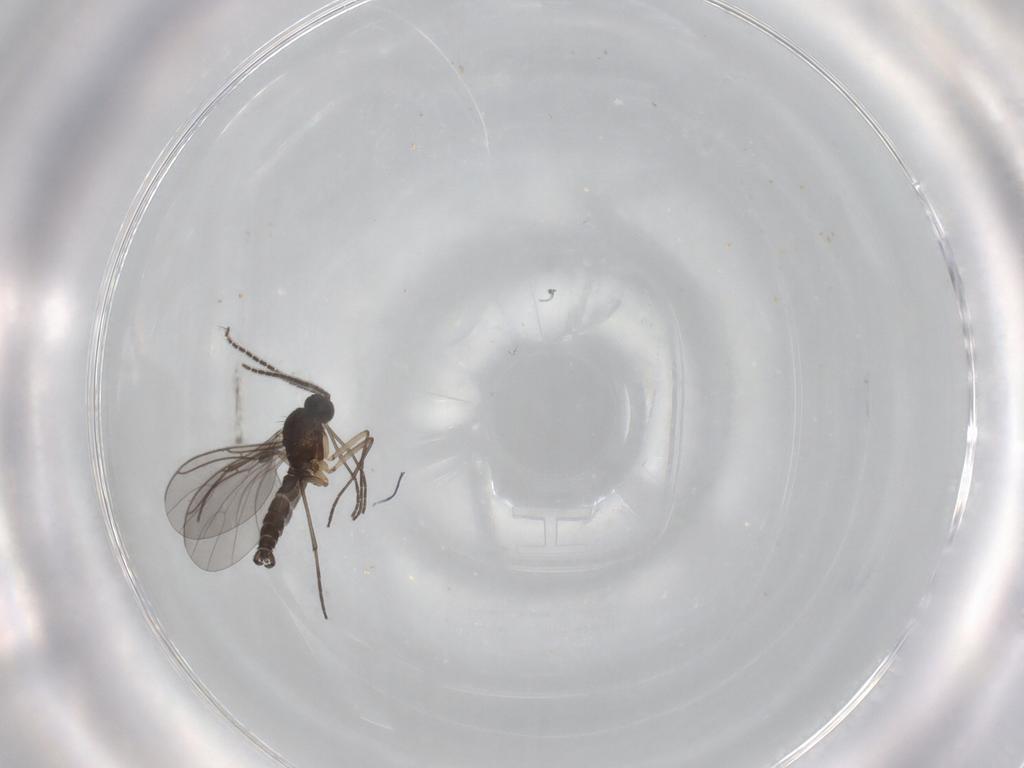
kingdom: Animalia
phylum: Arthropoda
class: Insecta
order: Diptera
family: Sciaridae
